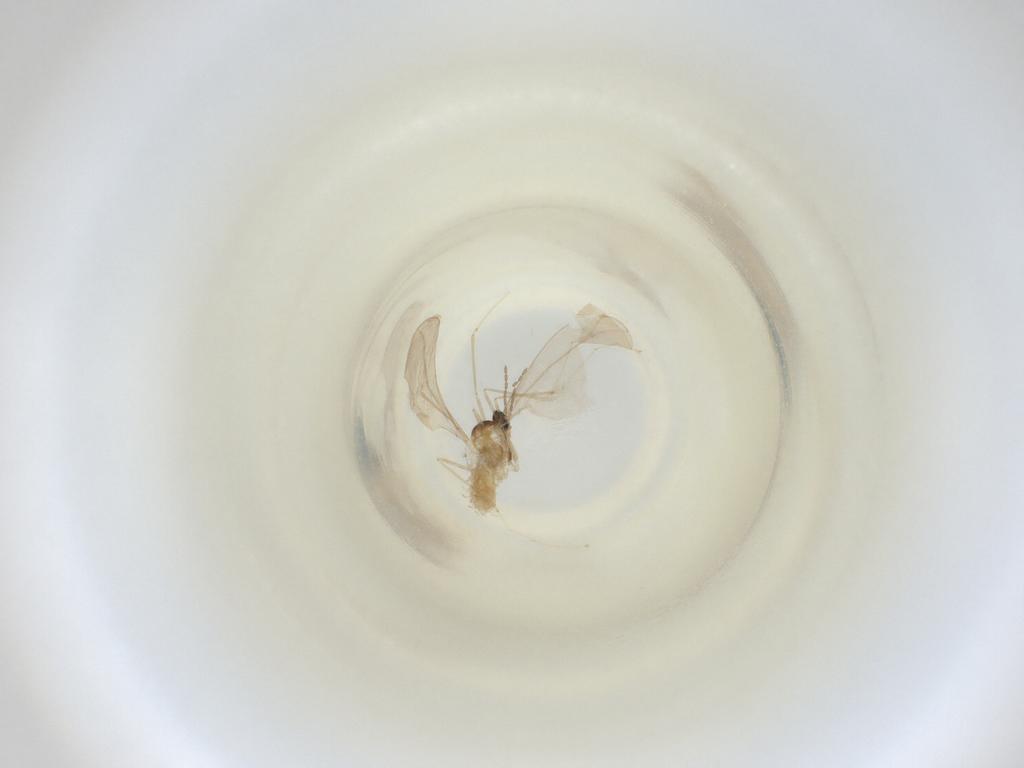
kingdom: Animalia
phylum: Arthropoda
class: Insecta
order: Diptera
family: Cecidomyiidae
